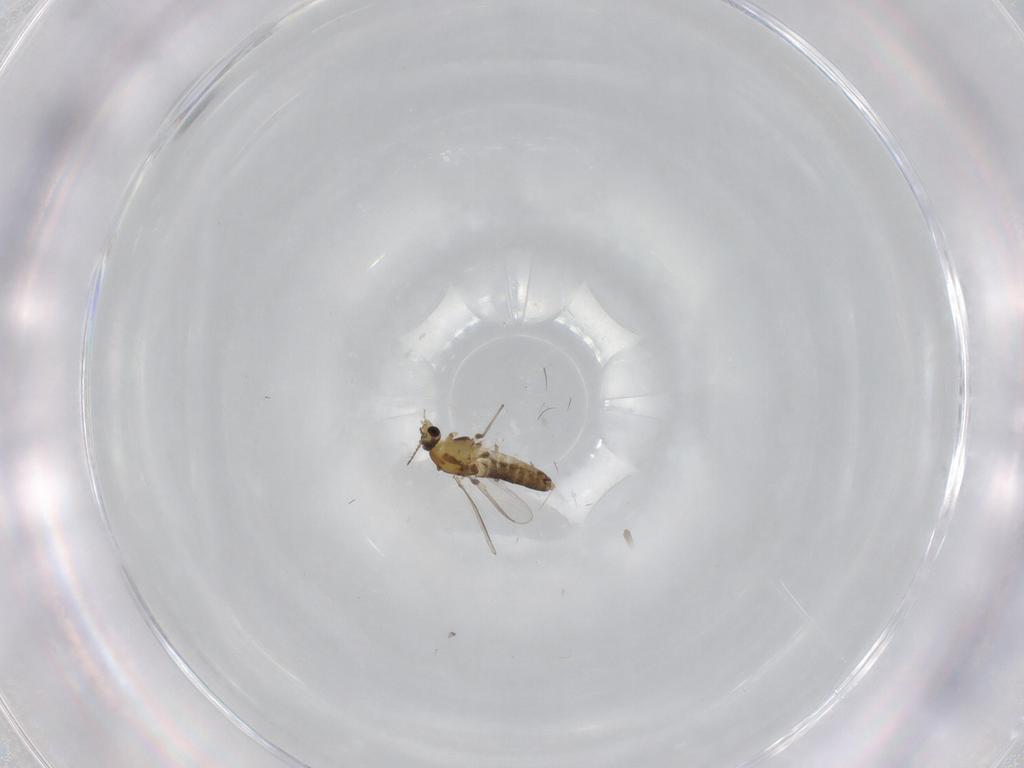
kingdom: Animalia
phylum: Arthropoda
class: Insecta
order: Diptera
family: Chironomidae
